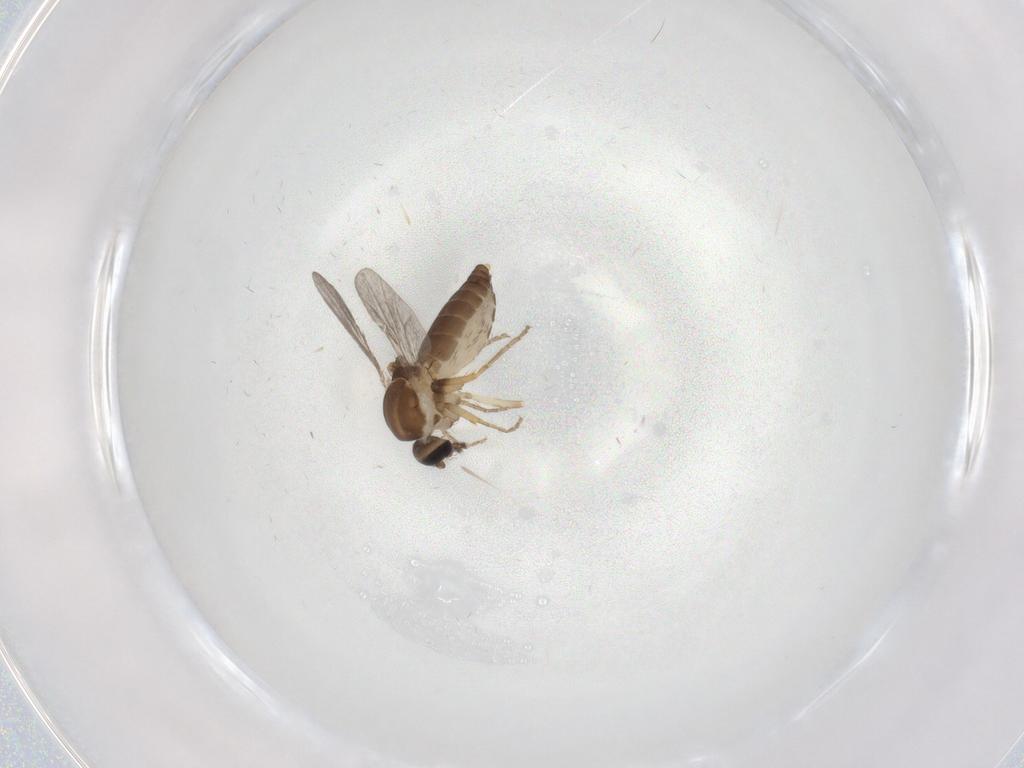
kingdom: Animalia
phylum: Arthropoda
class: Insecta
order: Diptera
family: Ceratopogonidae
